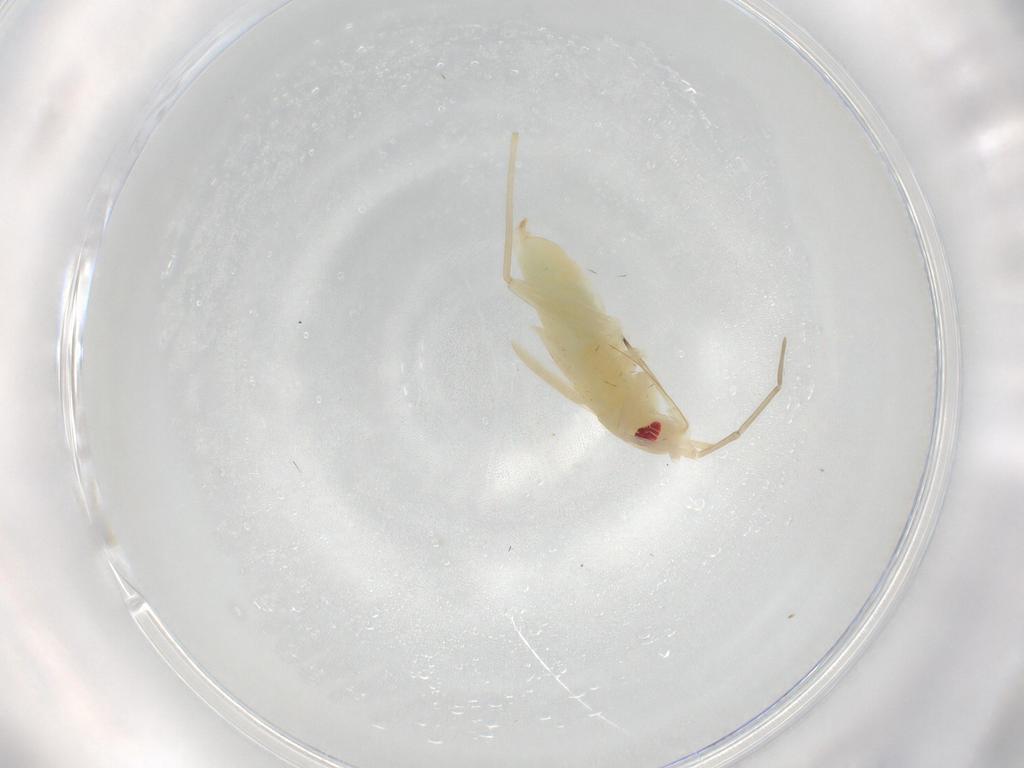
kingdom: Animalia
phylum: Arthropoda
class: Insecta
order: Hemiptera
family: Miridae
